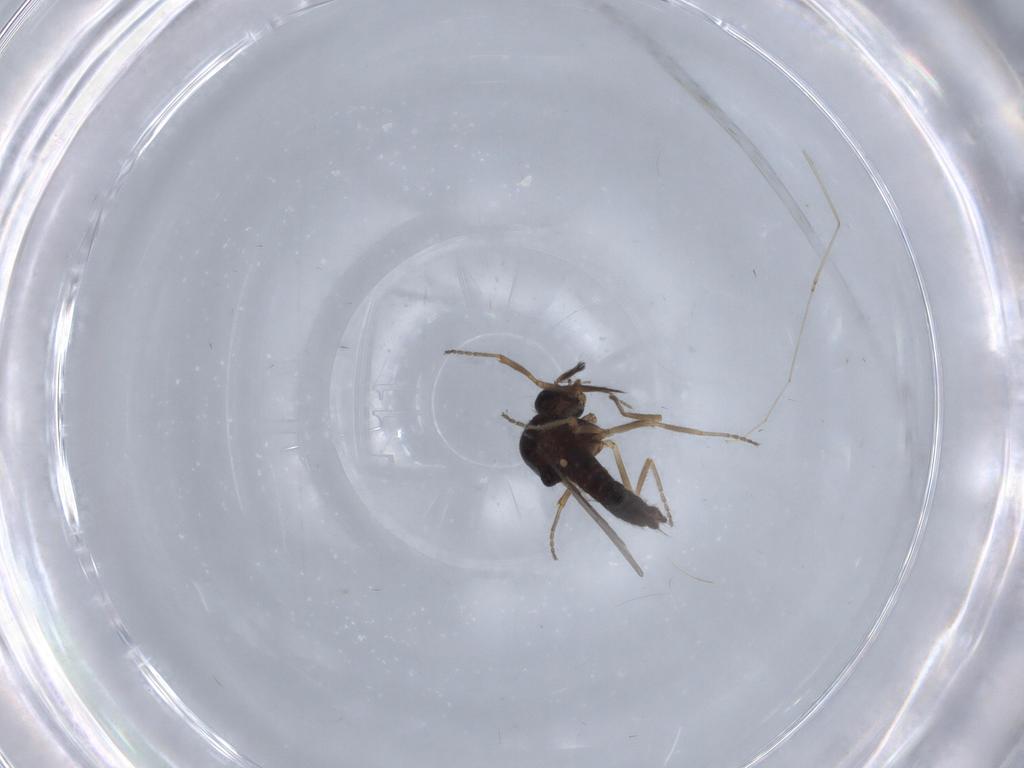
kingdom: Animalia
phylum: Arthropoda
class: Insecta
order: Diptera
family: Ceratopogonidae
